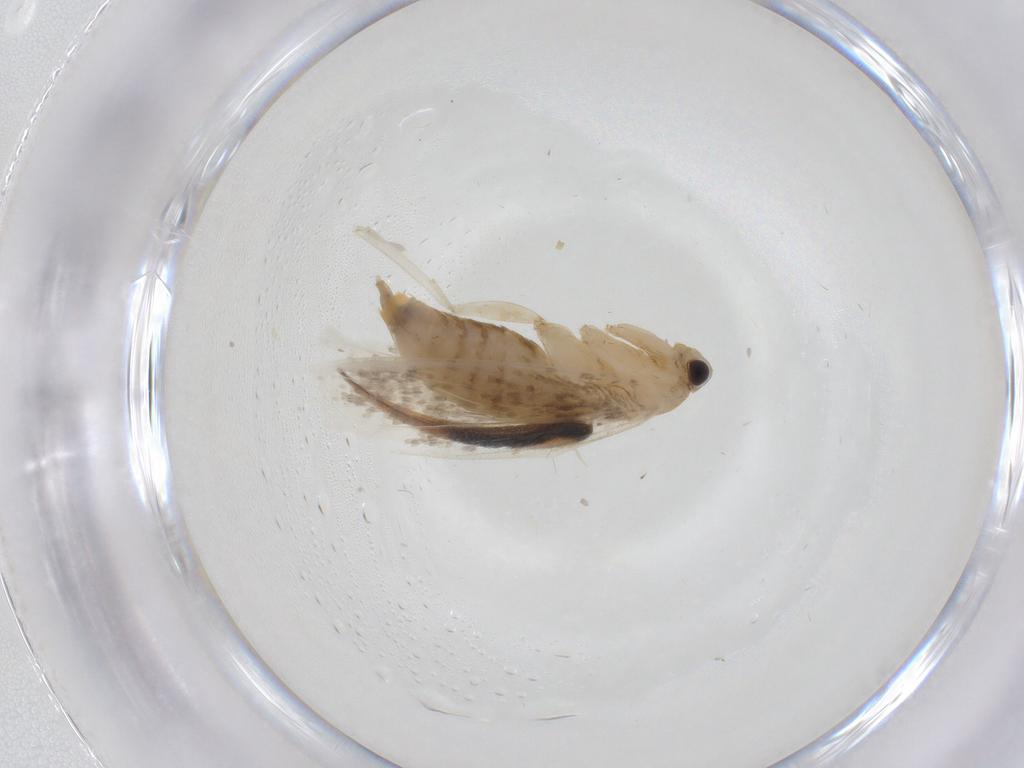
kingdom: Animalia
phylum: Arthropoda
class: Insecta
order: Lepidoptera
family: Tineidae
